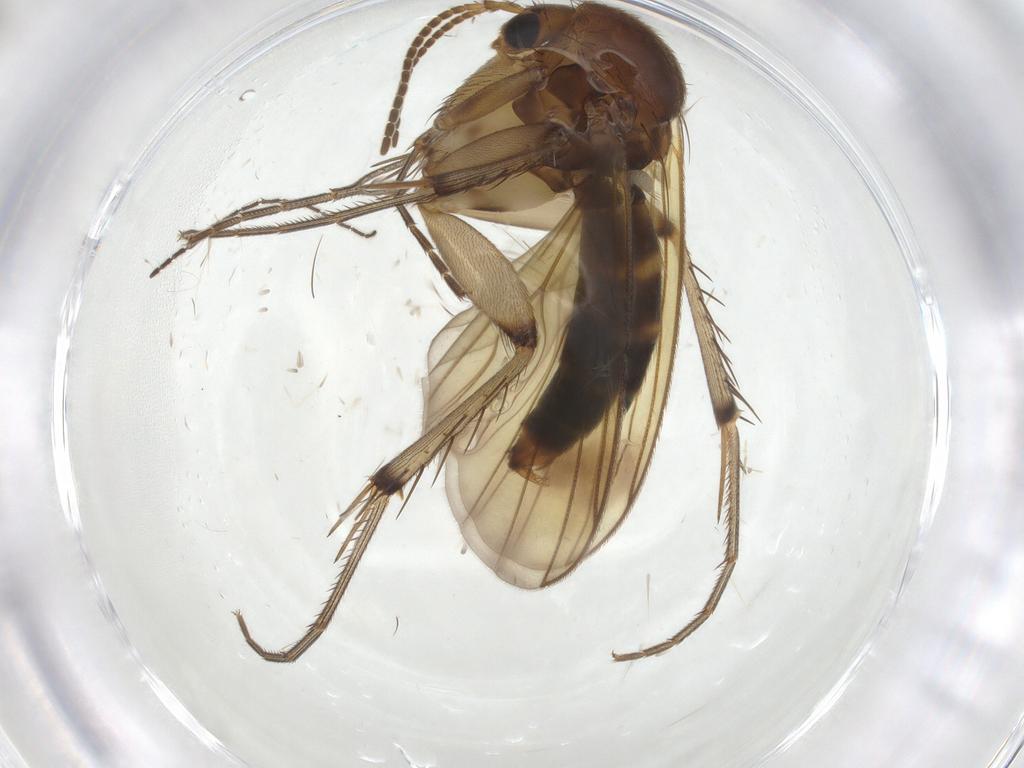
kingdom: Animalia
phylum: Arthropoda
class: Insecta
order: Diptera
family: Mycetophilidae
